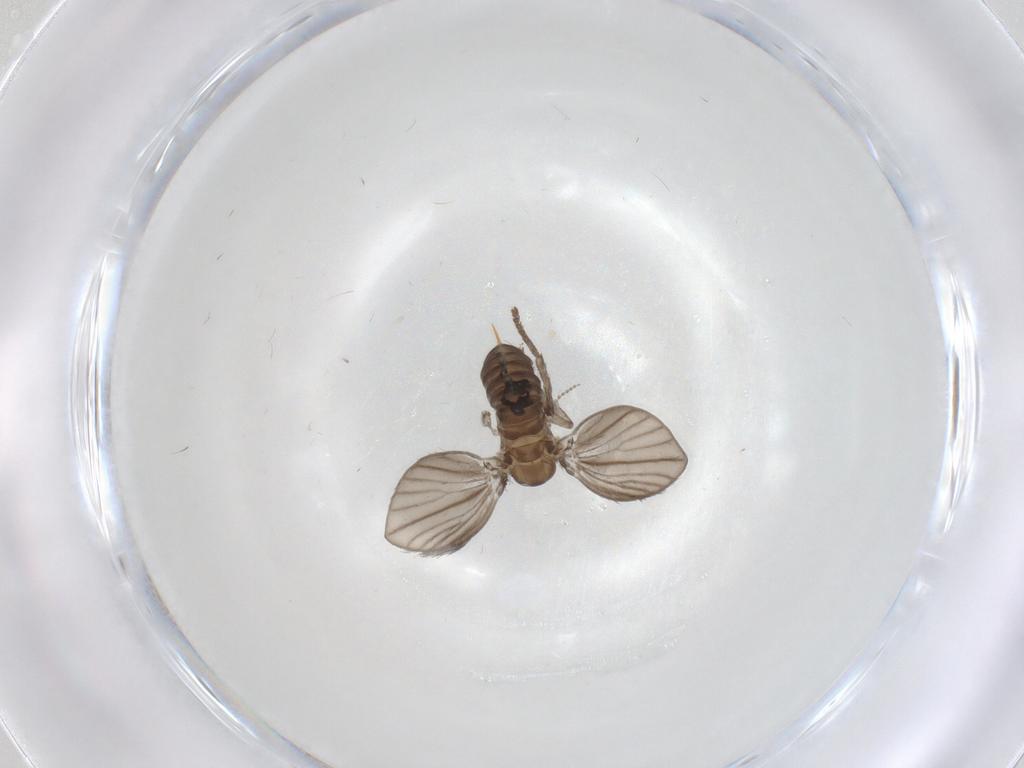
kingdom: Animalia
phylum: Arthropoda
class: Insecta
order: Diptera
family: Psychodidae
